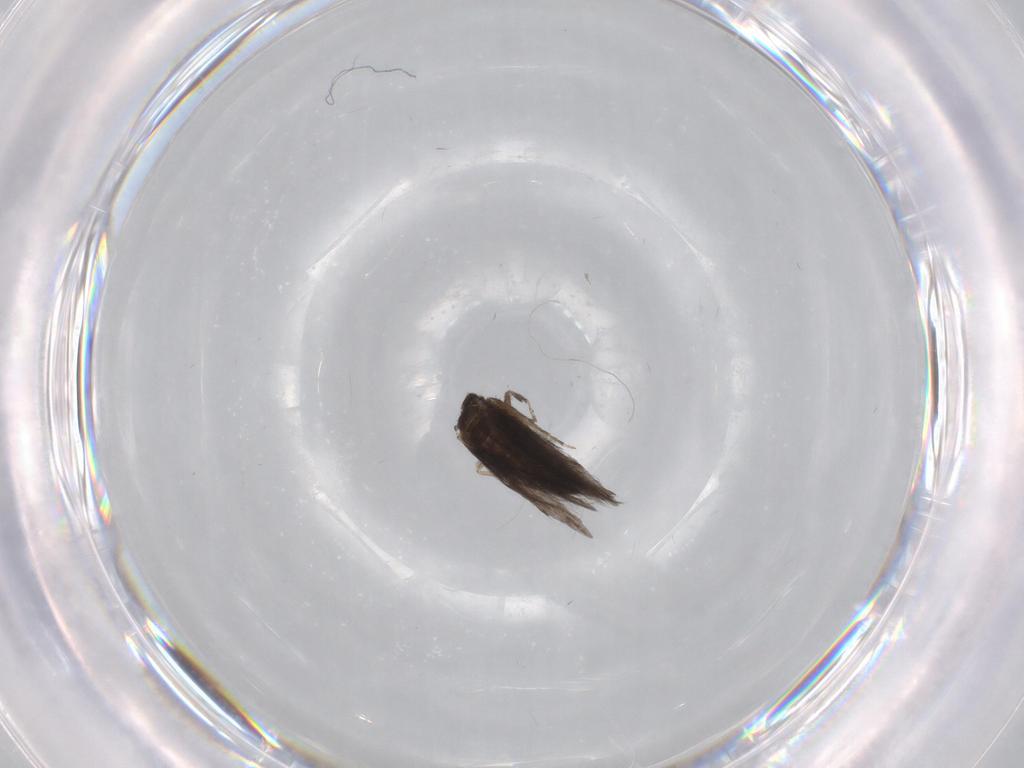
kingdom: Animalia
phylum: Arthropoda
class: Insecta
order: Trichoptera
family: Hydroptilidae
